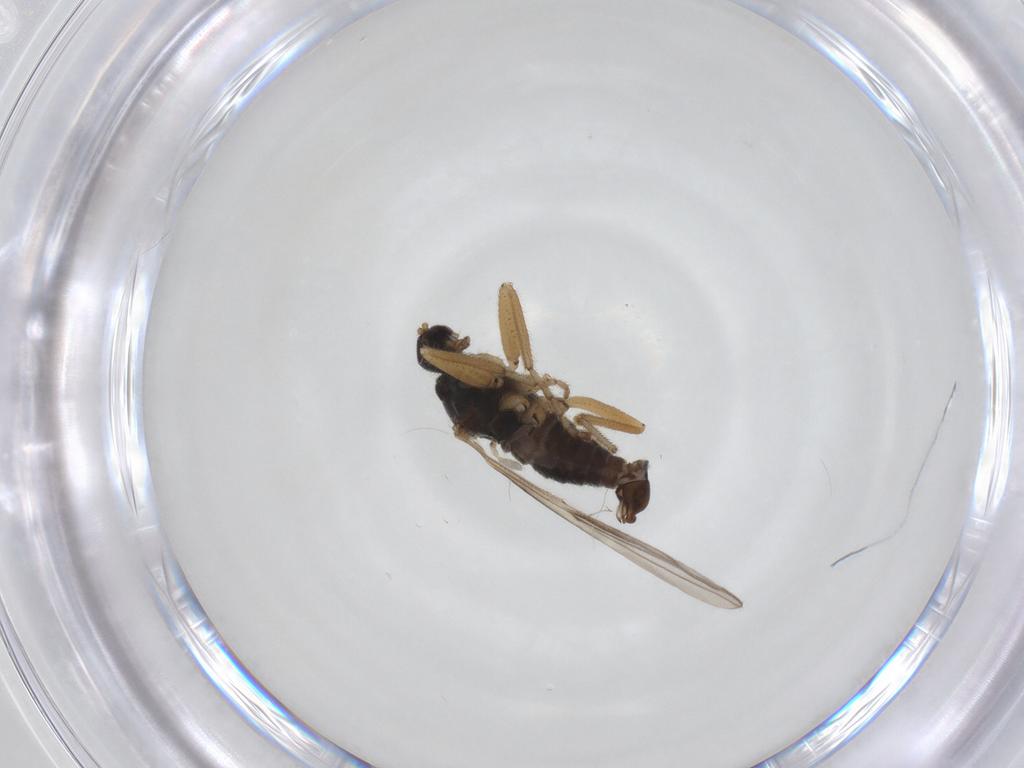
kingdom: Animalia
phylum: Arthropoda
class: Insecta
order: Diptera
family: Hybotidae
